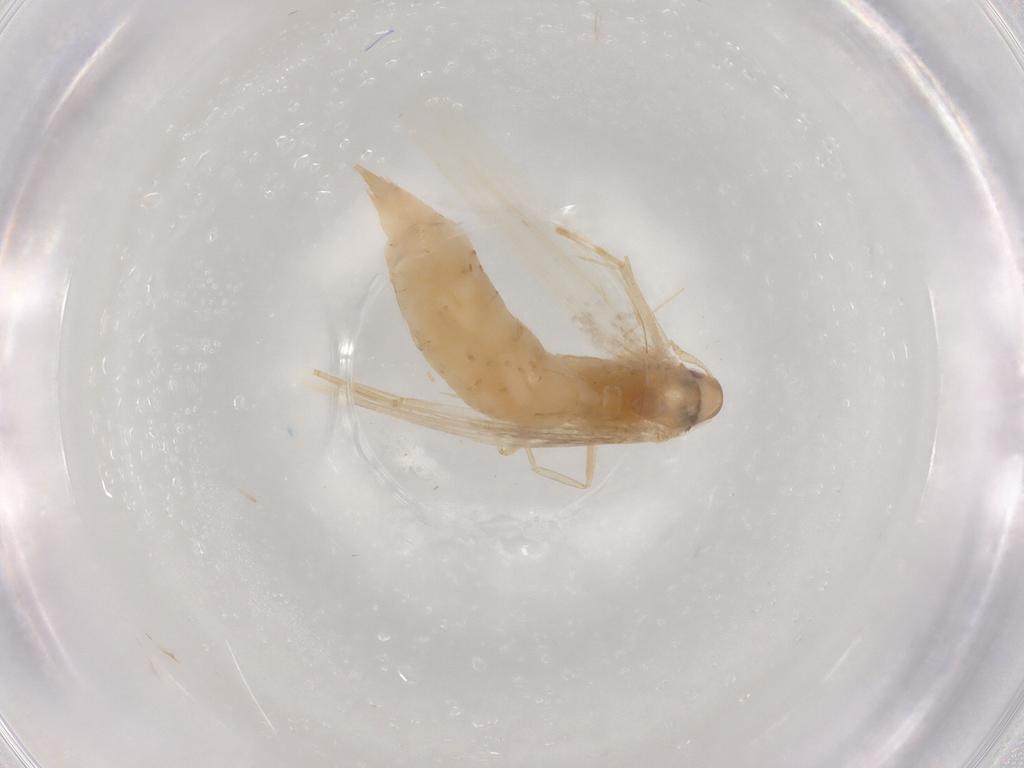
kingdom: Animalia
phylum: Arthropoda
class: Insecta
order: Lepidoptera
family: Cosmopterigidae
